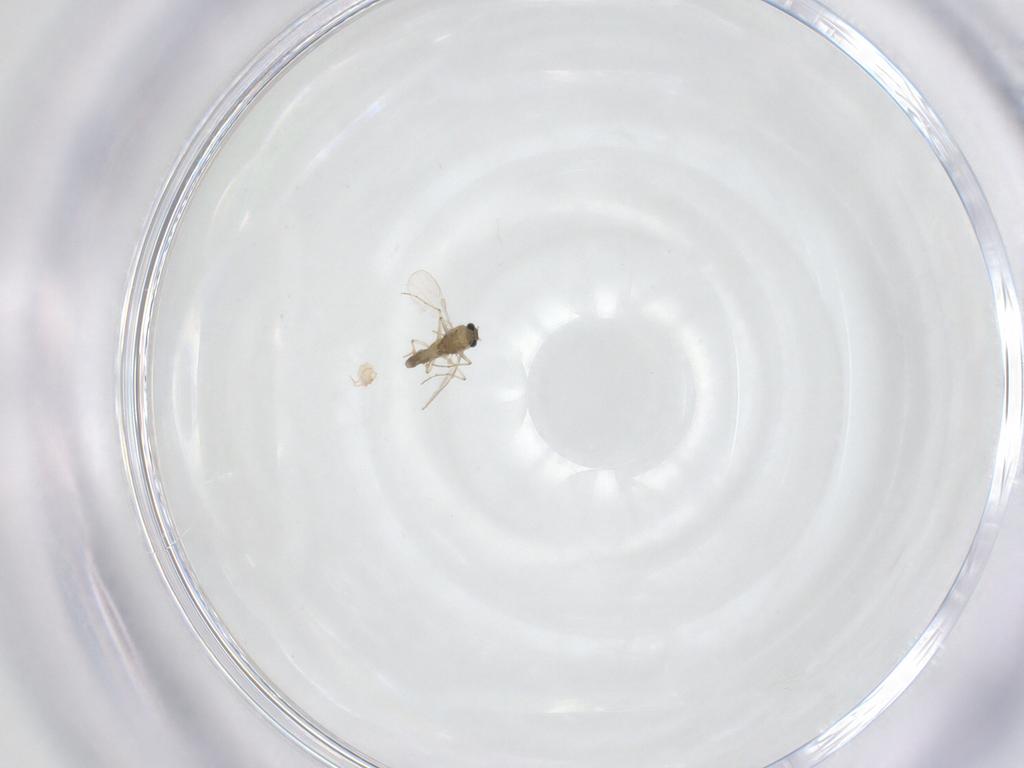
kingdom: Animalia
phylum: Arthropoda
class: Insecta
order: Diptera
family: Chironomidae
